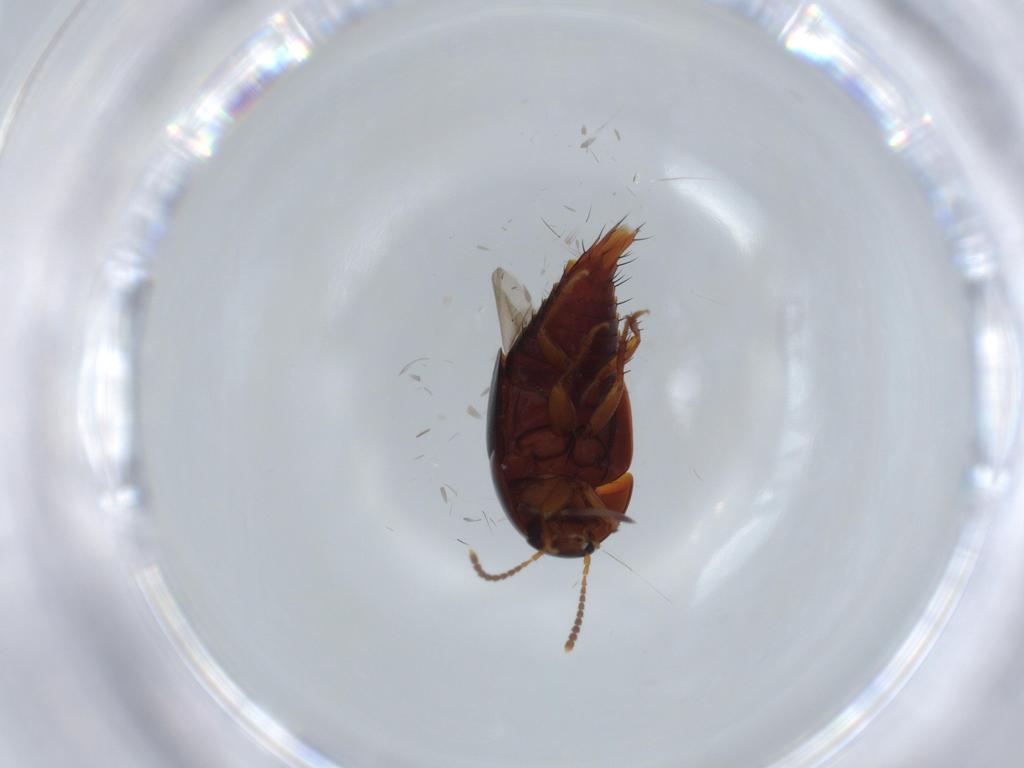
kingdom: Animalia
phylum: Arthropoda
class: Insecta
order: Coleoptera
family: Staphylinidae
